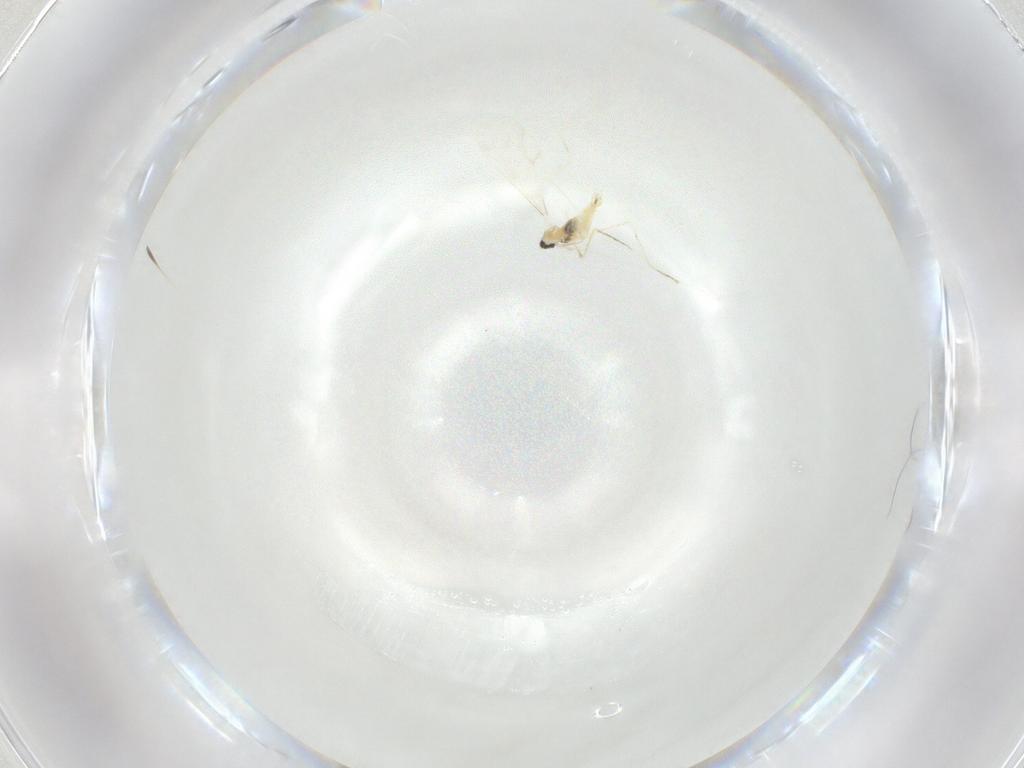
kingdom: Animalia
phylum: Arthropoda
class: Insecta
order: Diptera
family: Cecidomyiidae
